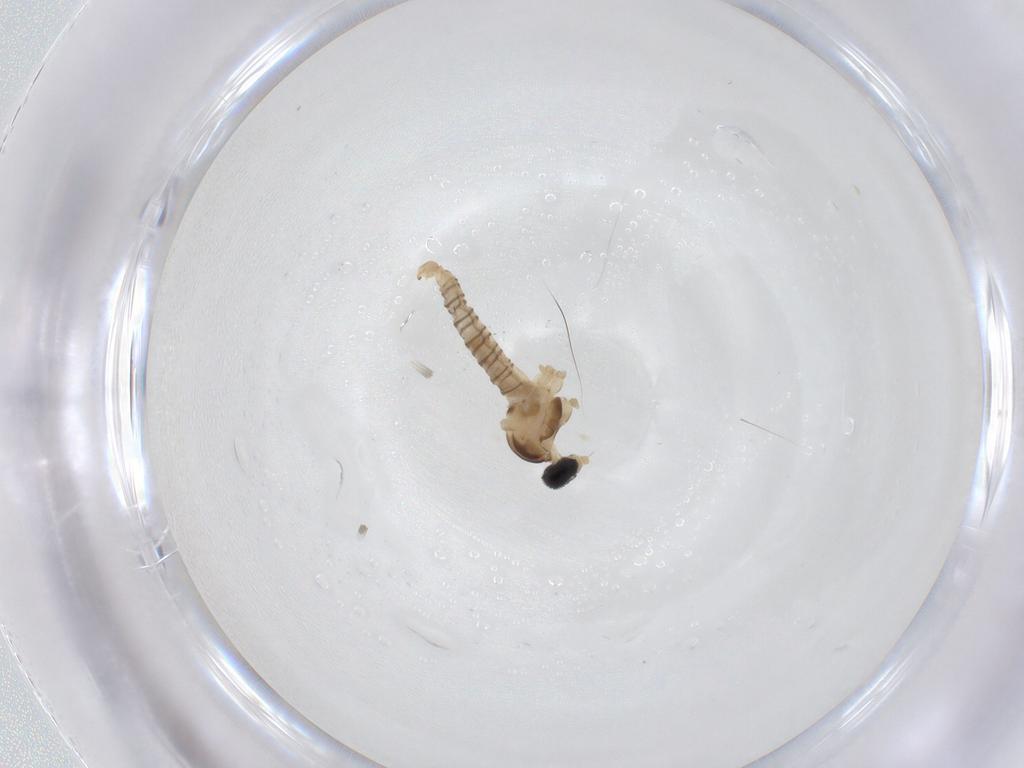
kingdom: Animalia
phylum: Arthropoda
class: Insecta
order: Diptera
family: Cecidomyiidae
